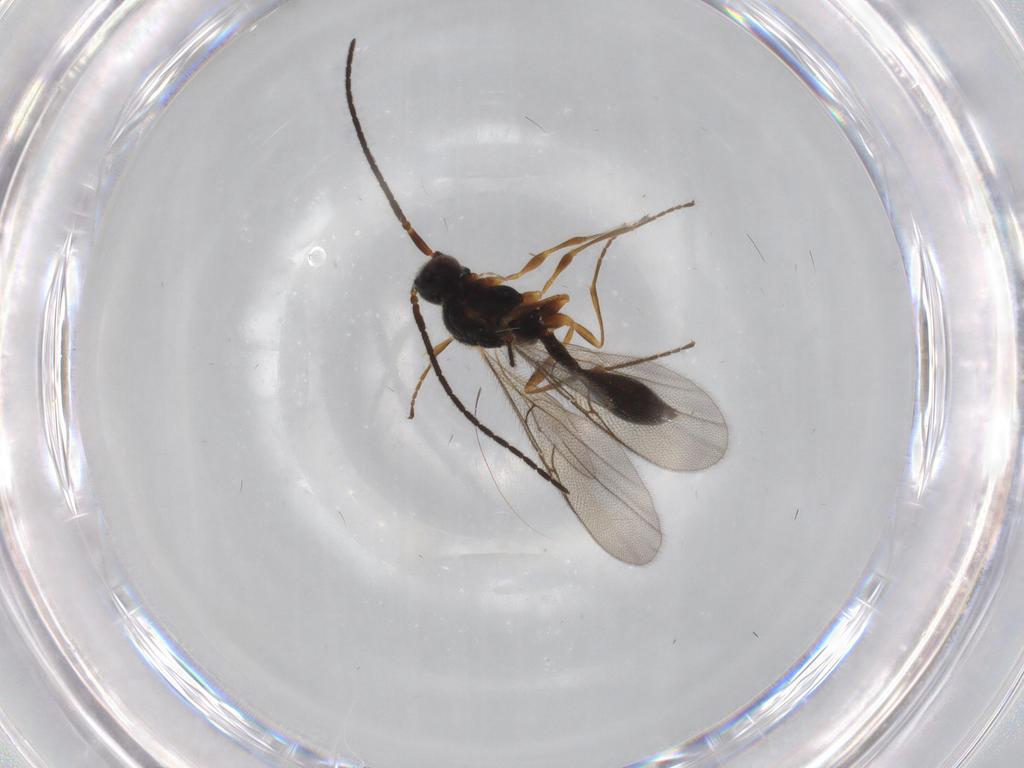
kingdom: Animalia
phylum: Arthropoda
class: Insecta
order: Hymenoptera
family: Diapriidae
